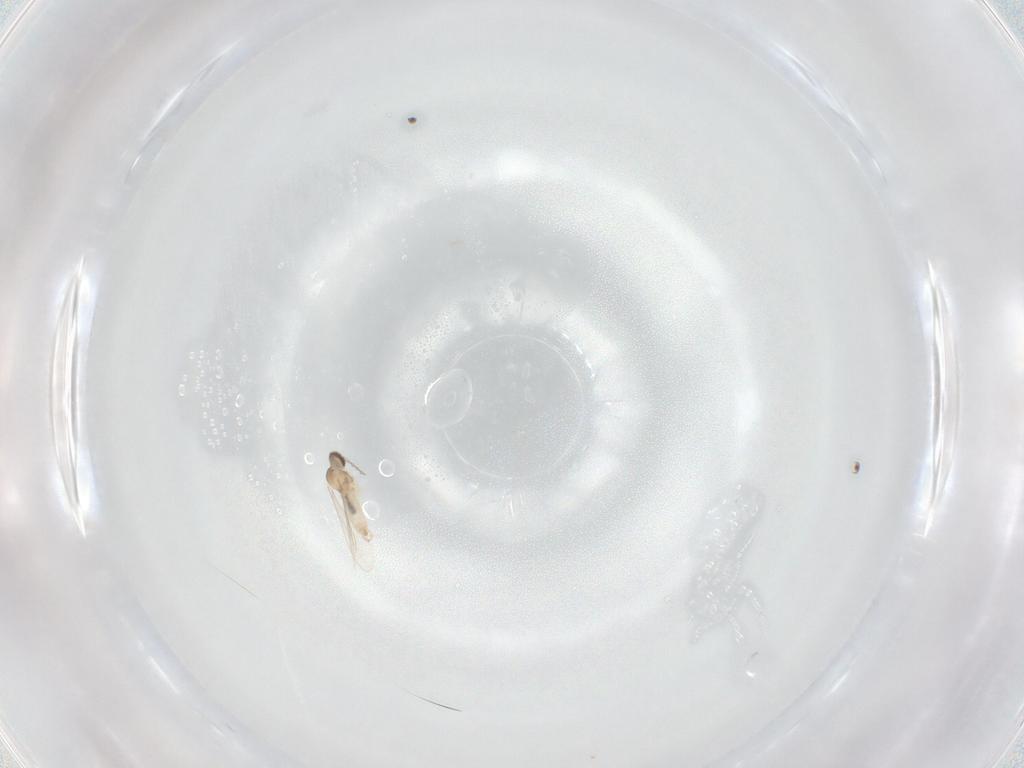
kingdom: Animalia
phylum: Arthropoda
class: Insecta
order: Diptera
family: Cecidomyiidae
